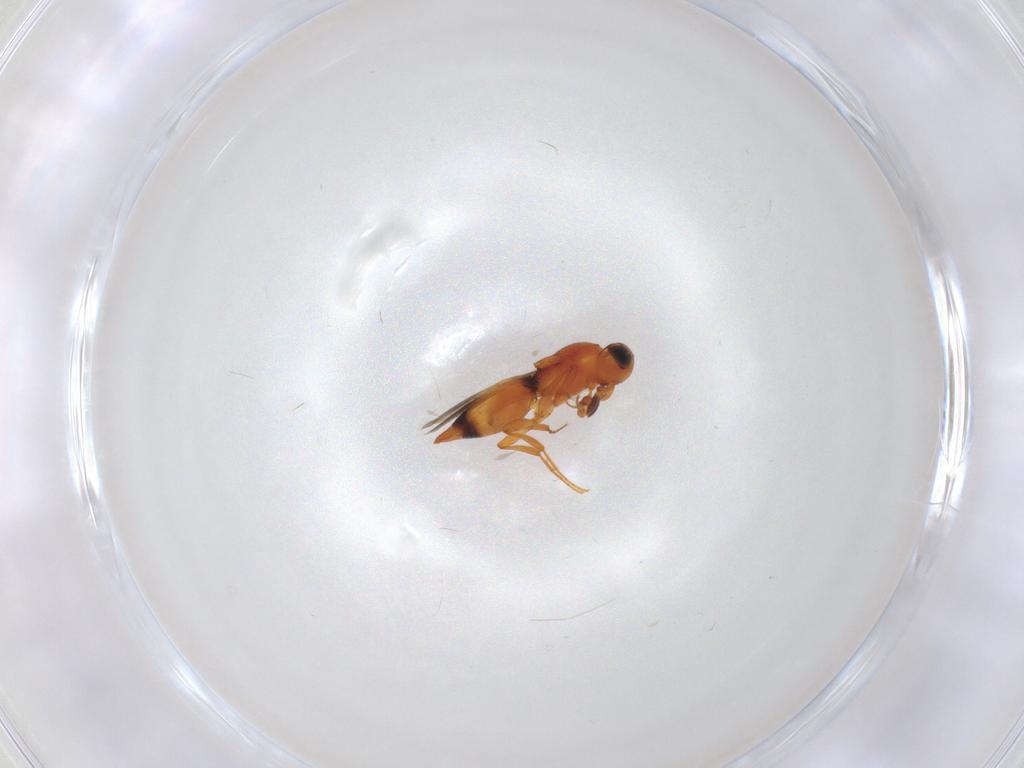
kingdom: Animalia
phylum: Arthropoda
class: Insecta
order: Hymenoptera
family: Platygastridae
